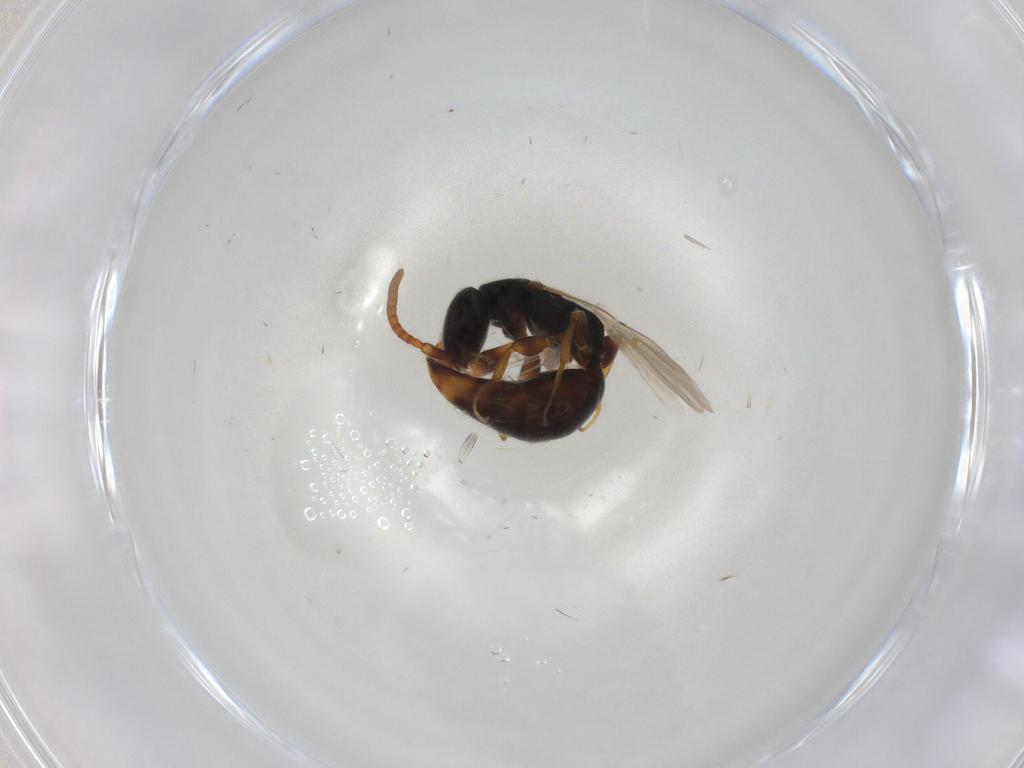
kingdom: Animalia
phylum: Arthropoda
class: Insecta
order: Hymenoptera
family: Bethylidae
